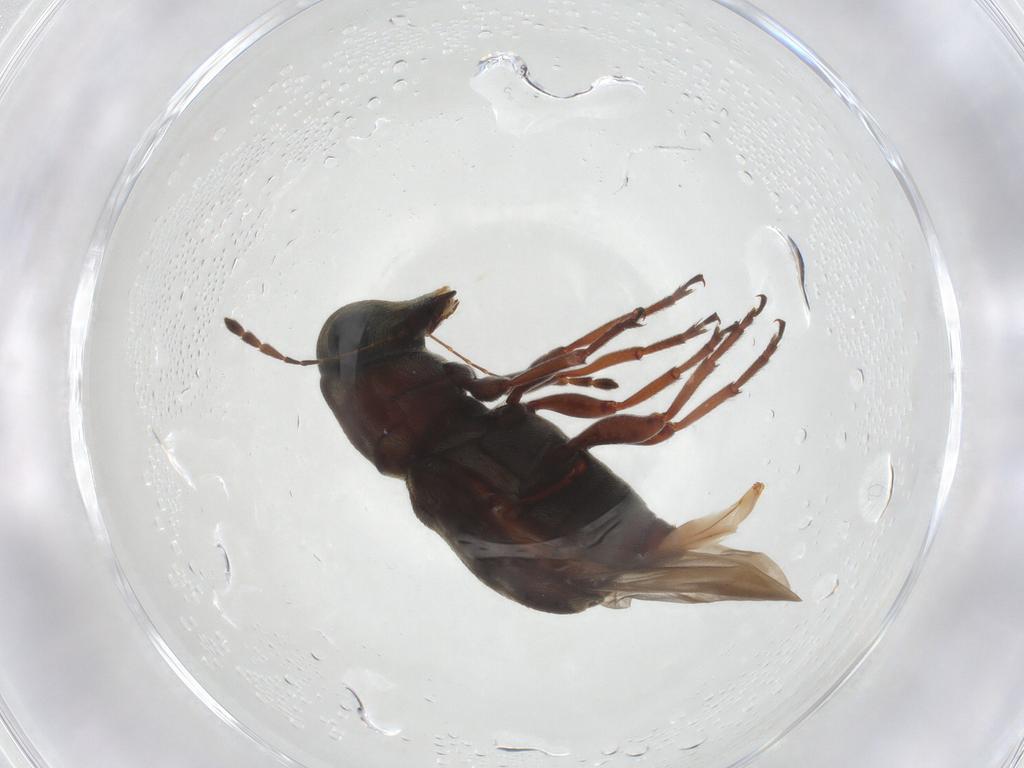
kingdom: Animalia
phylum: Arthropoda
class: Insecta
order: Coleoptera
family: Anthribidae
